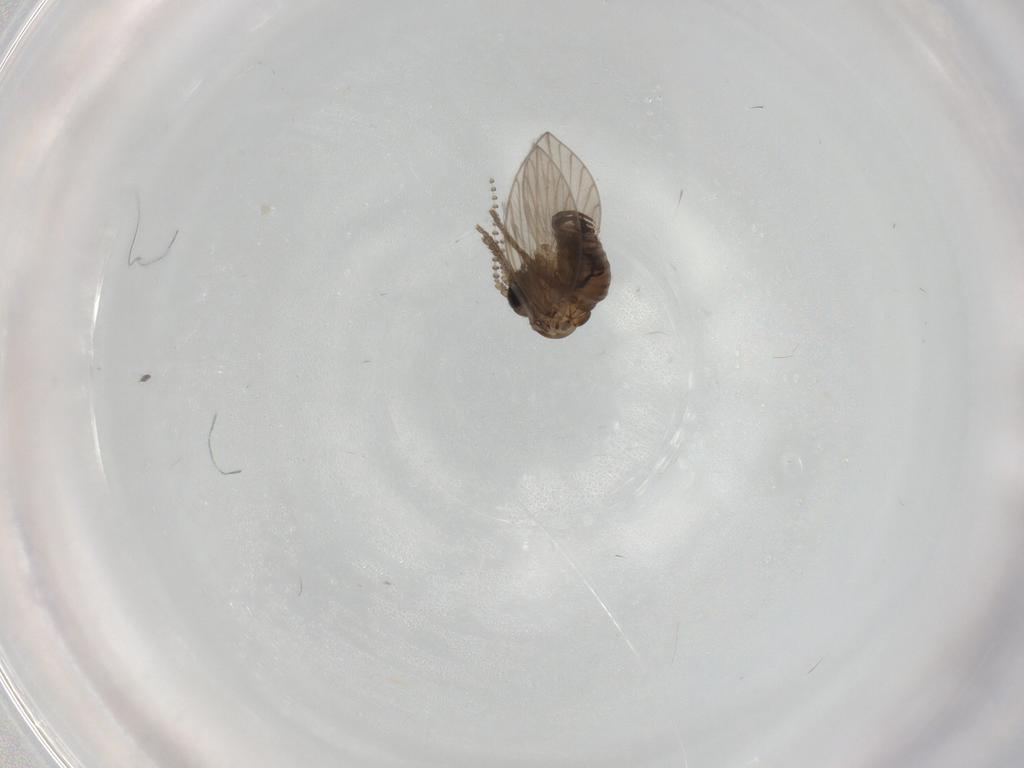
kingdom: Animalia
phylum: Arthropoda
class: Insecta
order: Diptera
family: Psychodidae
